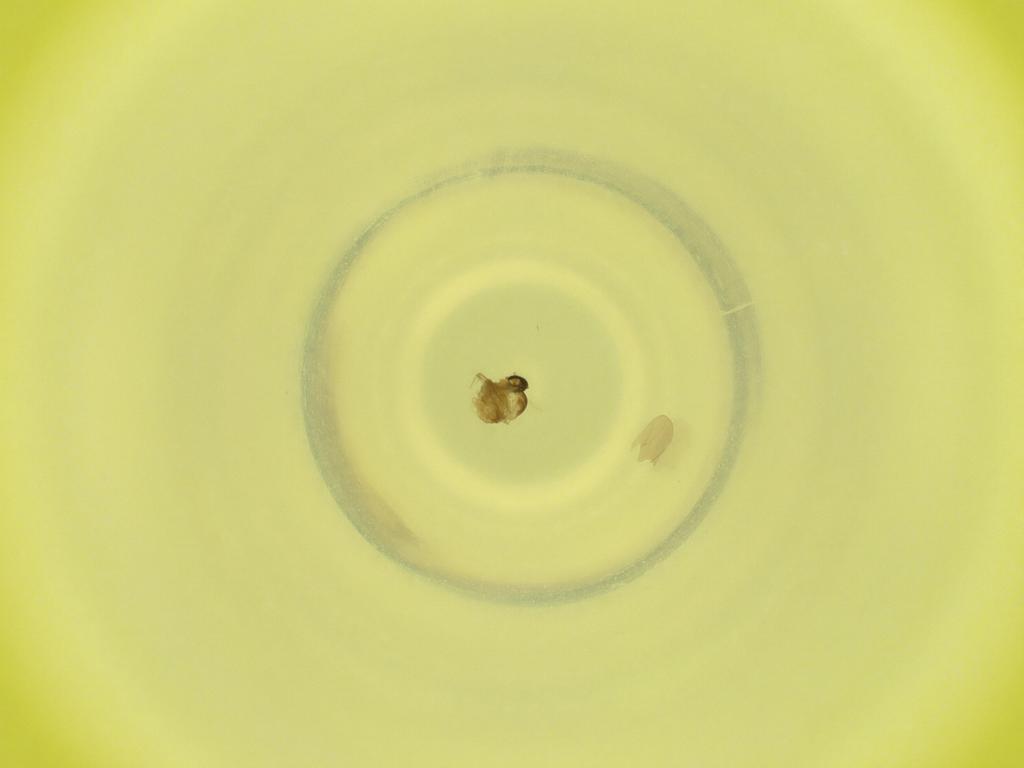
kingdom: Animalia
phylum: Arthropoda
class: Insecta
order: Diptera
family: Cecidomyiidae
